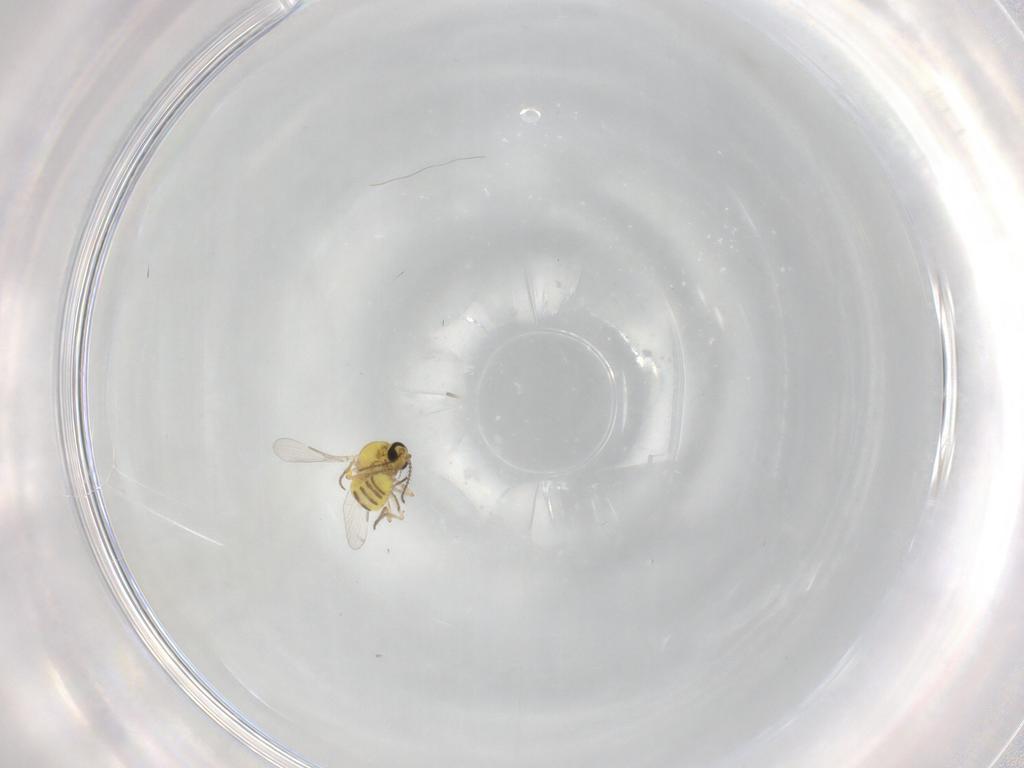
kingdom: Animalia
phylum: Arthropoda
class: Insecta
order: Diptera
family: Ceratopogonidae
